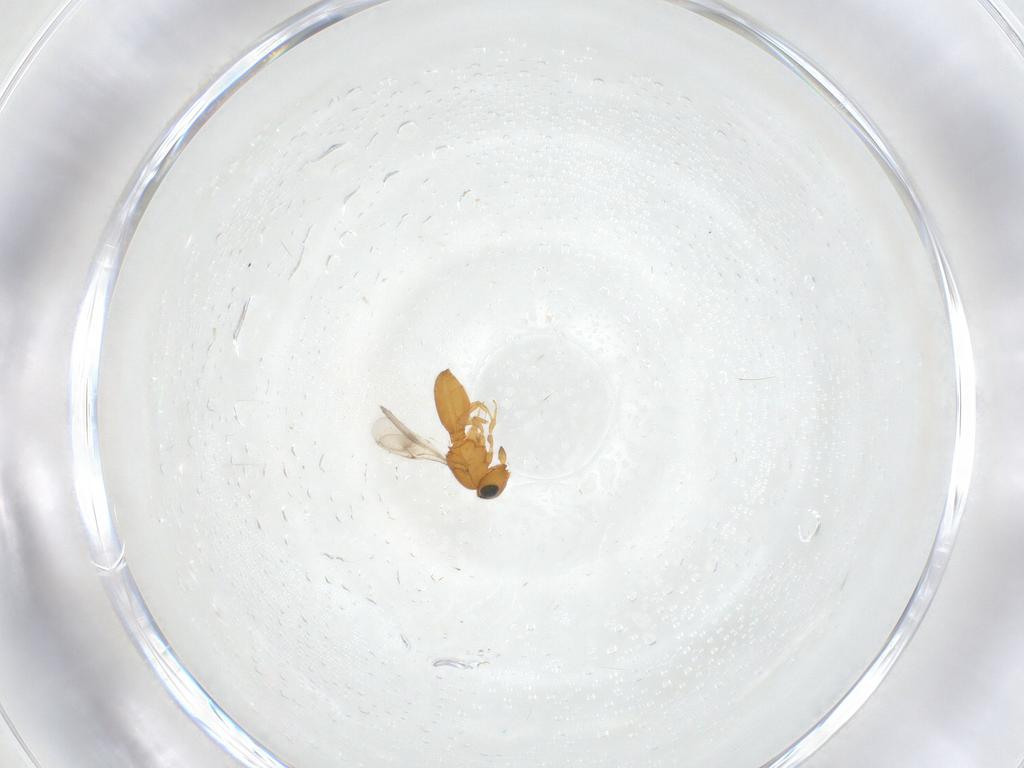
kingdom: Animalia
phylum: Arthropoda
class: Insecta
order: Hymenoptera
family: Scelionidae
